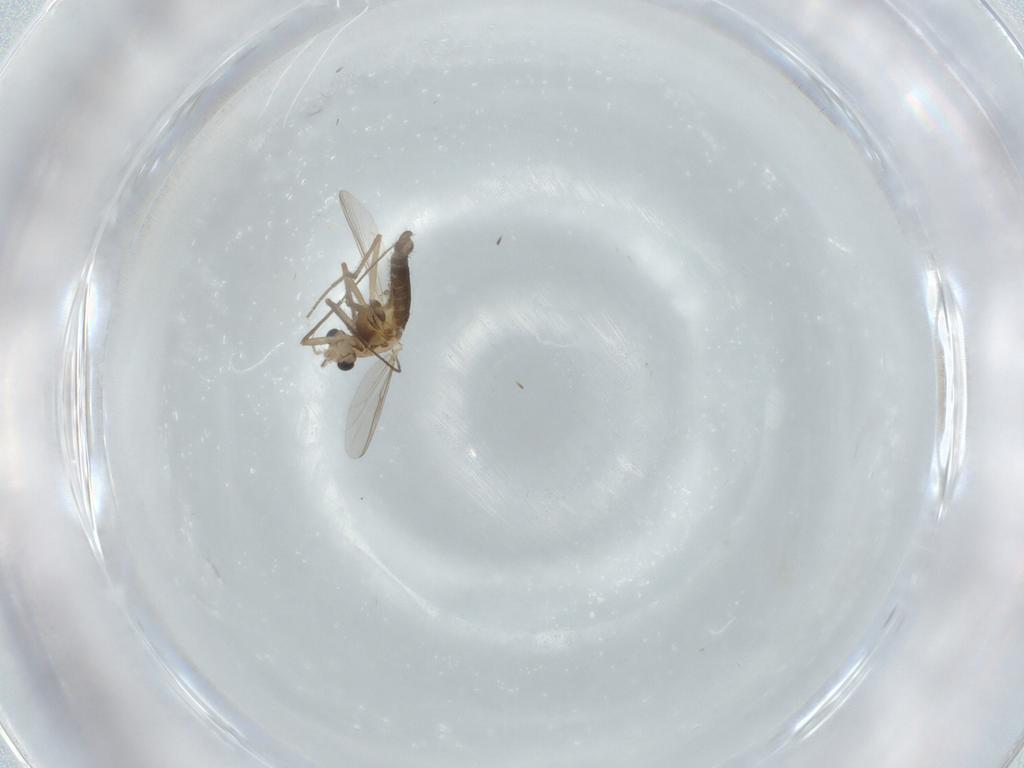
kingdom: Animalia
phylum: Arthropoda
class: Insecta
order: Diptera
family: Chironomidae
